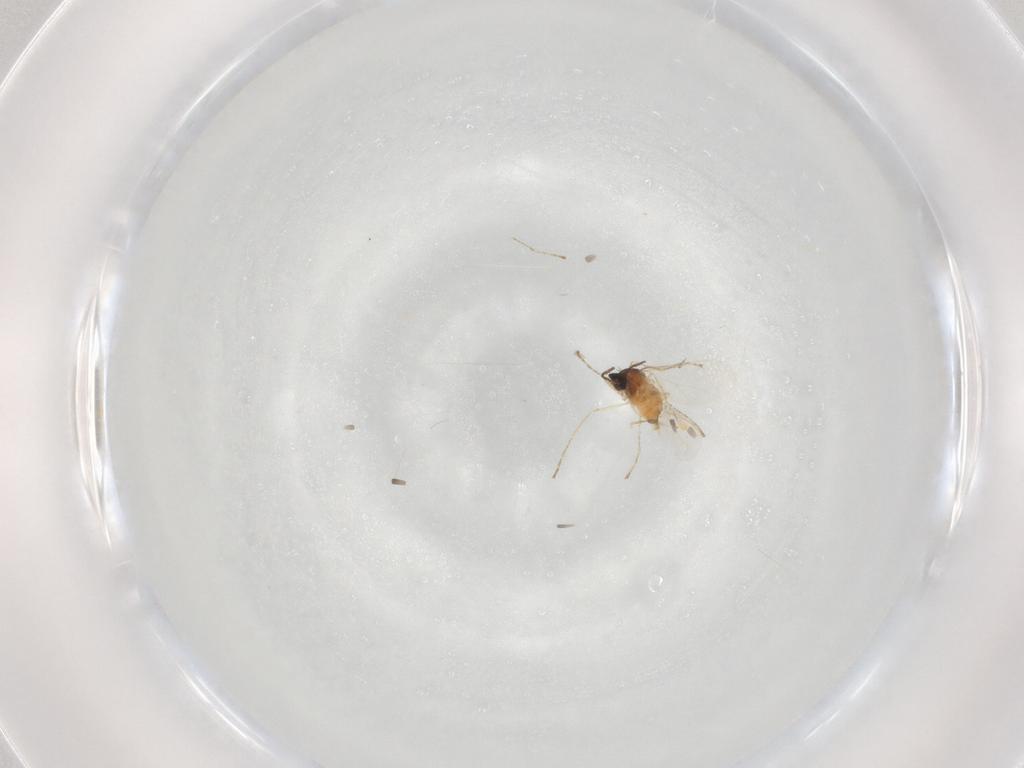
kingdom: Animalia
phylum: Arthropoda
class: Insecta
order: Diptera
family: Cecidomyiidae
